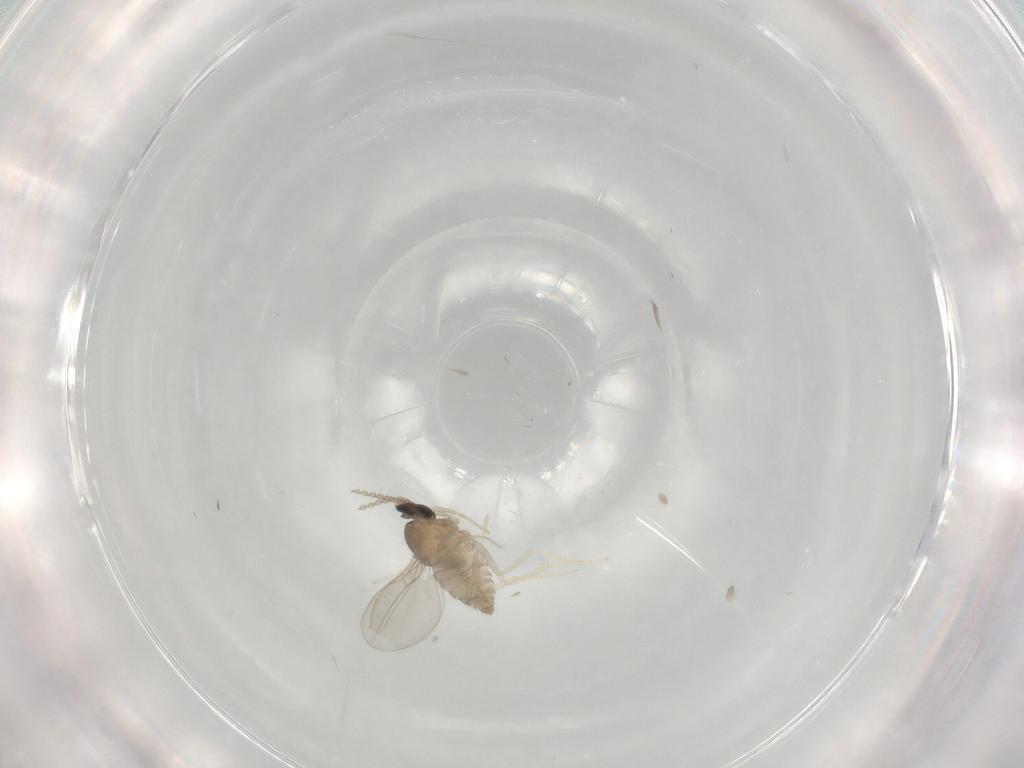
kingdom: Animalia
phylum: Arthropoda
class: Insecta
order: Diptera
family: Cecidomyiidae
